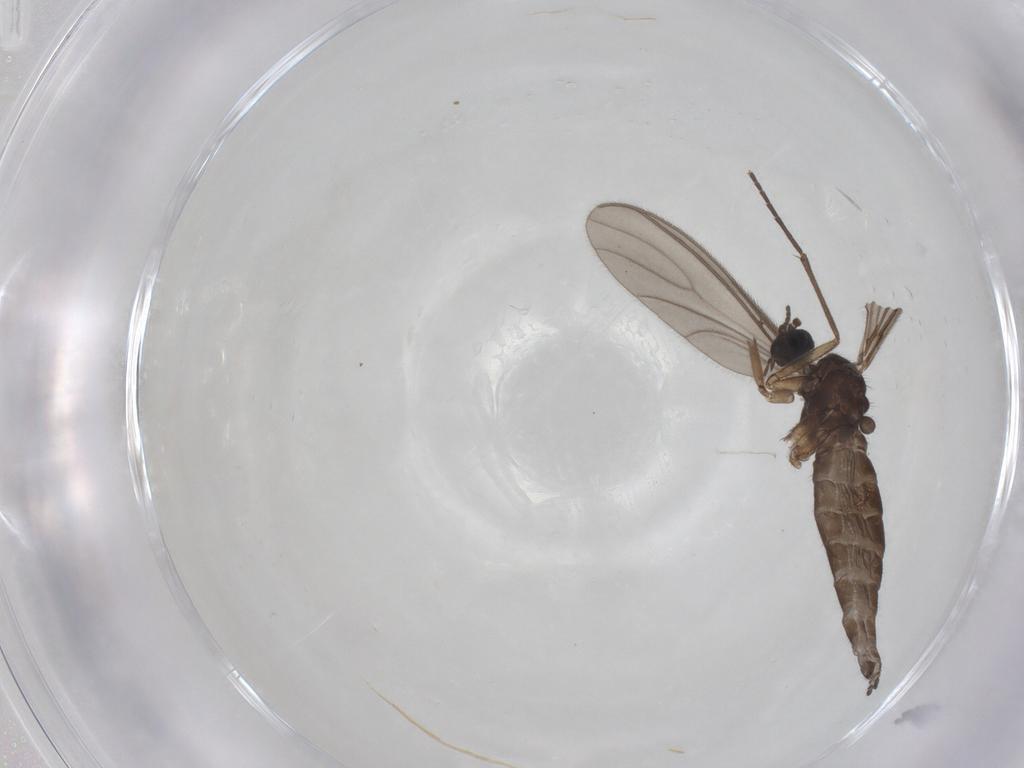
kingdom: Animalia
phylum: Arthropoda
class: Insecta
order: Diptera
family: Sciaridae
